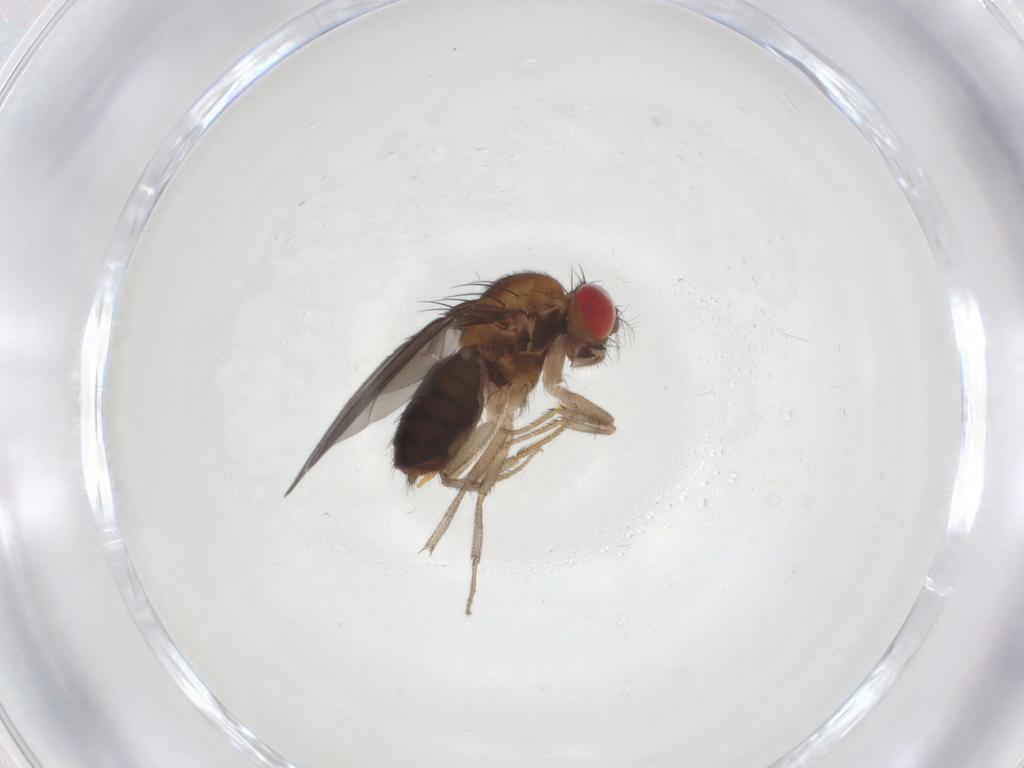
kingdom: Animalia
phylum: Arthropoda
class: Insecta
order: Diptera
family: Drosophilidae
